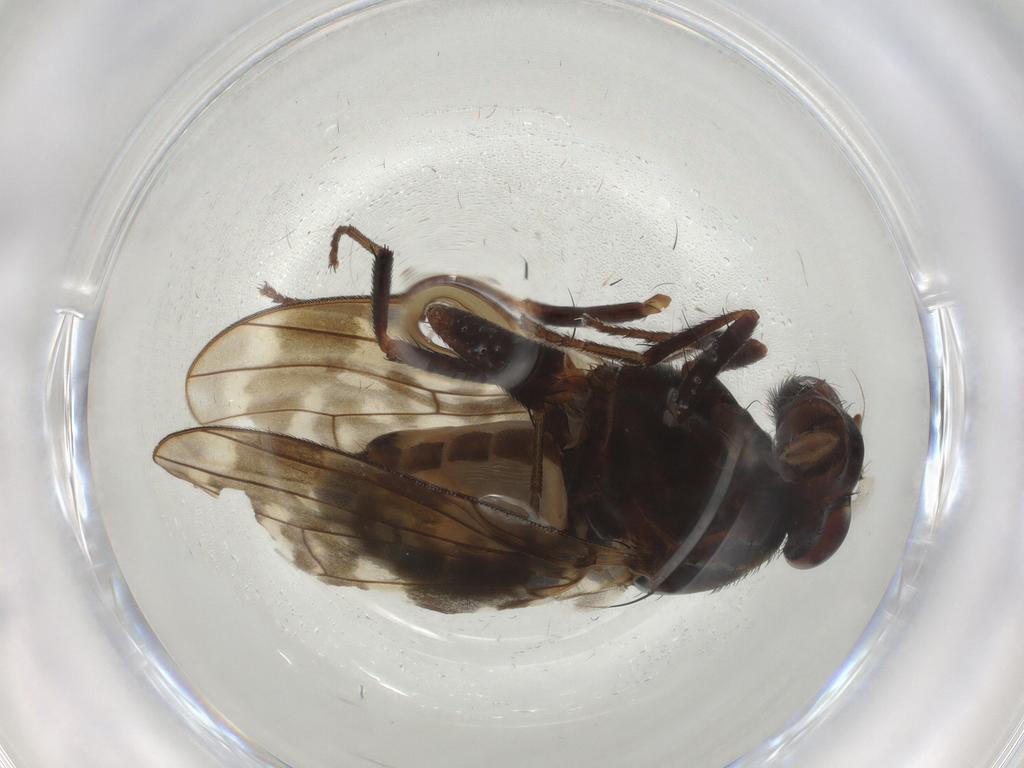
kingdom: Animalia
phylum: Arthropoda
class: Insecta
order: Diptera
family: Ceratopogonidae
